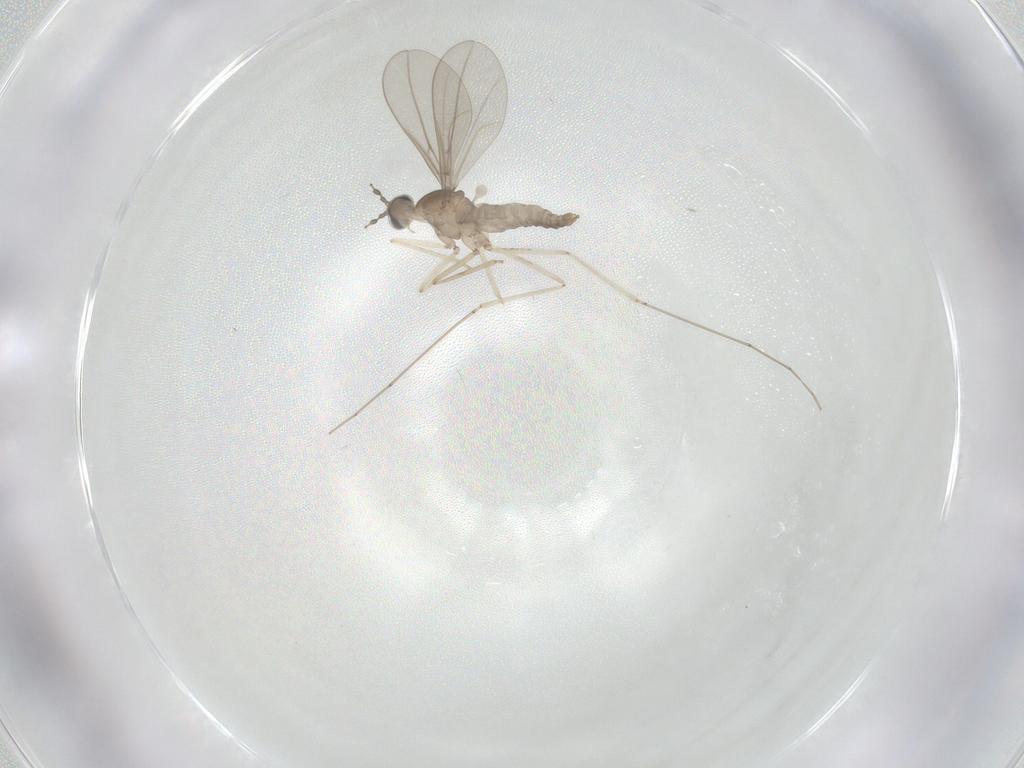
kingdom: Animalia
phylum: Arthropoda
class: Insecta
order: Diptera
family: Cecidomyiidae
